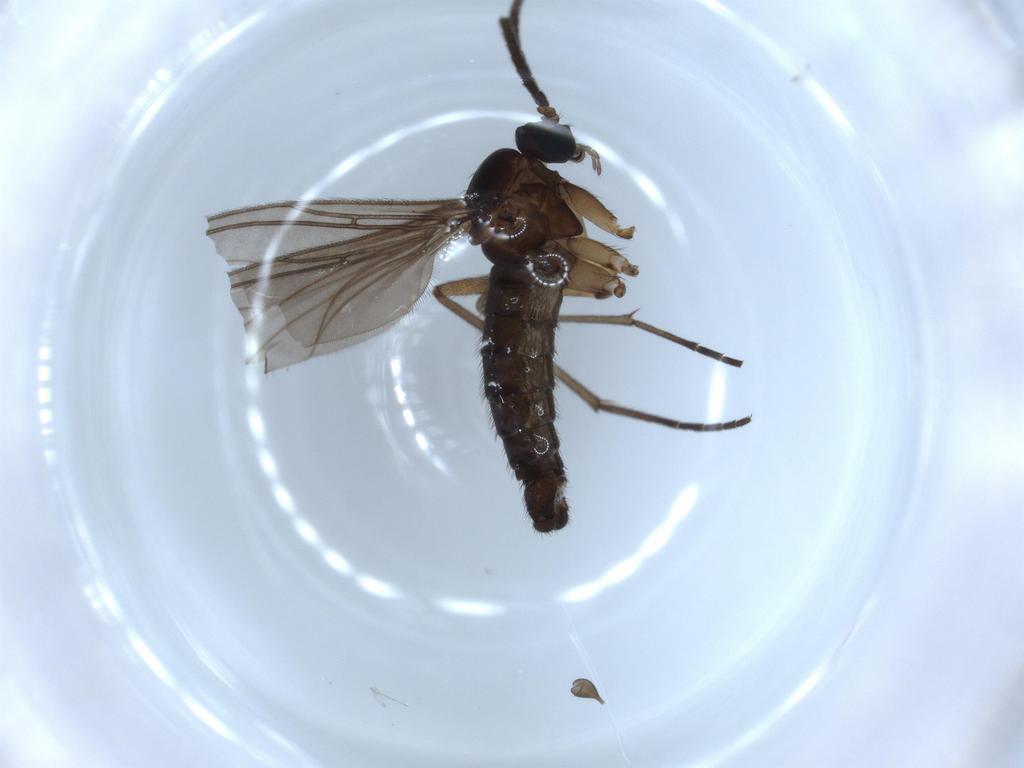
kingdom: Animalia
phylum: Arthropoda
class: Insecta
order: Diptera
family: Sciaridae
